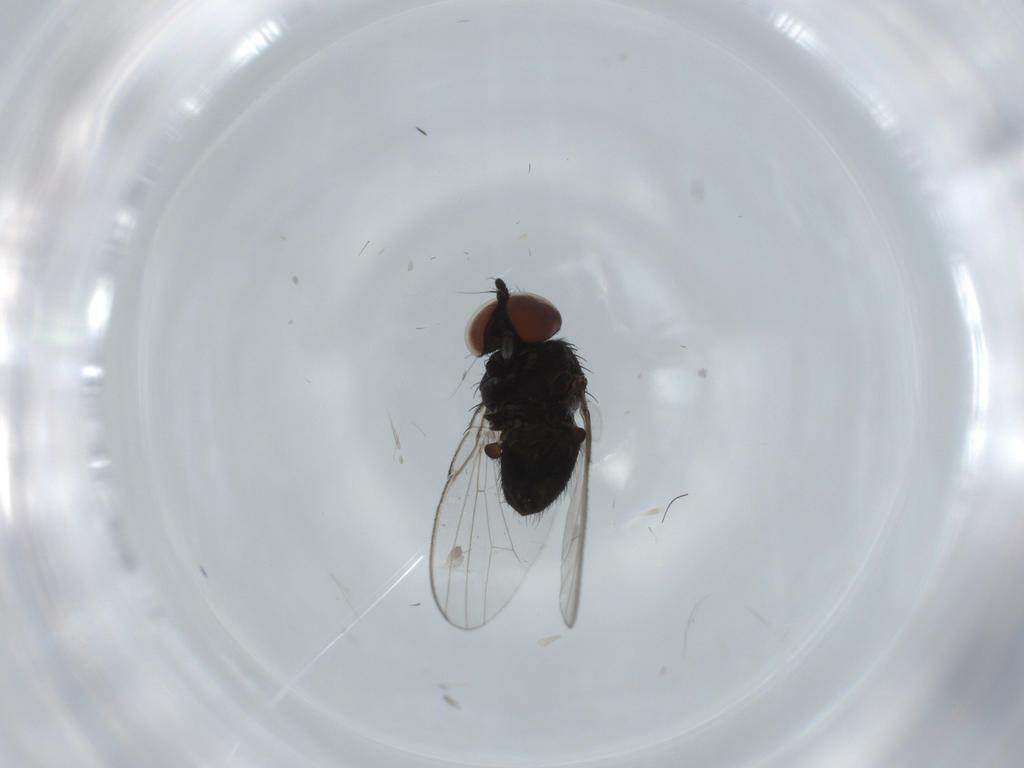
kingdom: Animalia
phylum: Arthropoda
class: Insecta
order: Diptera
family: Milichiidae
